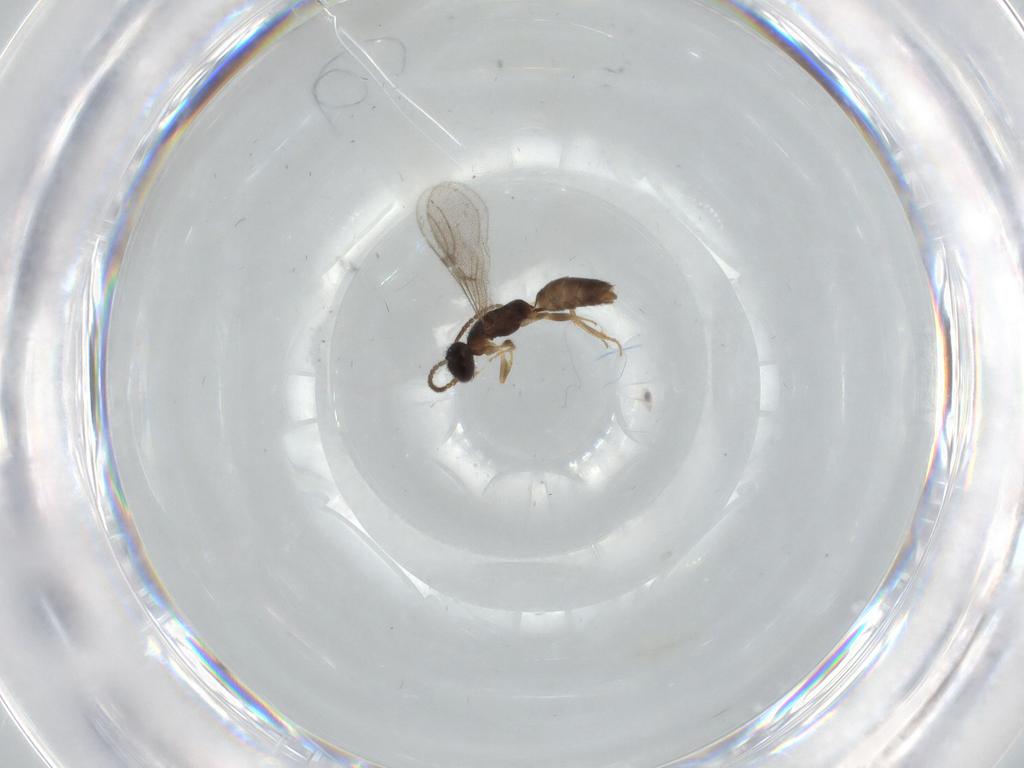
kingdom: Animalia
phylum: Arthropoda
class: Insecta
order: Hymenoptera
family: Bethylidae
